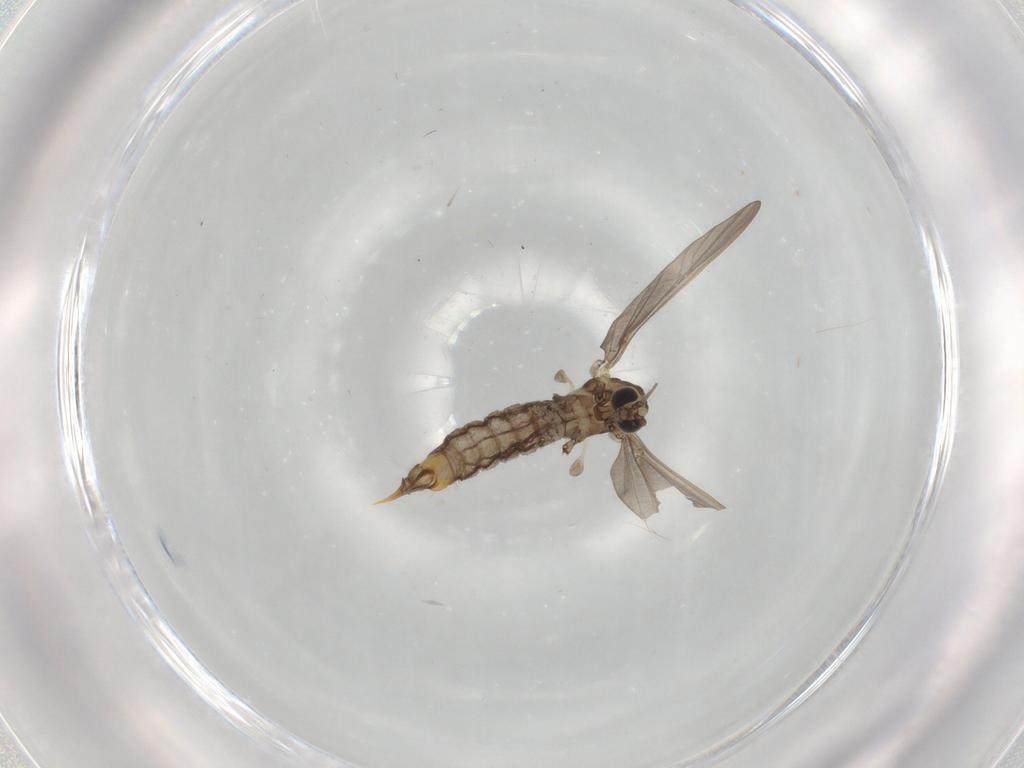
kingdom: Animalia
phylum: Arthropoda
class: Insecta
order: Diptera
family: Limoniidae
